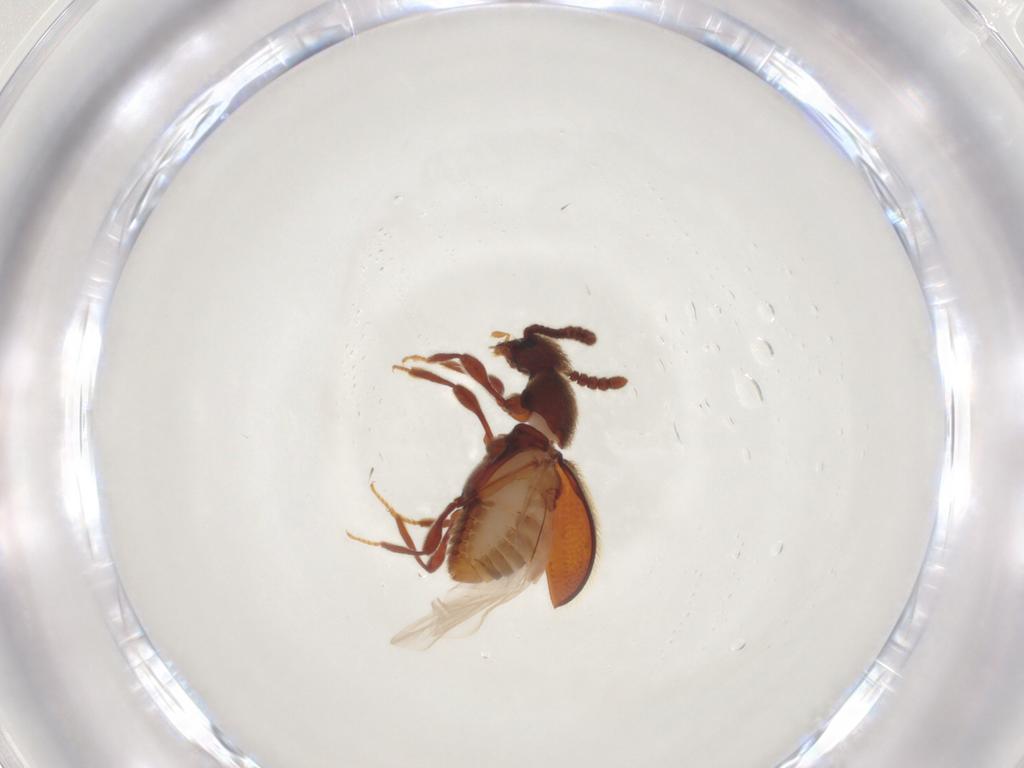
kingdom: Animalia
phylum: Arthropoda
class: Insecta
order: Coleoptera
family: Staphylinidae
